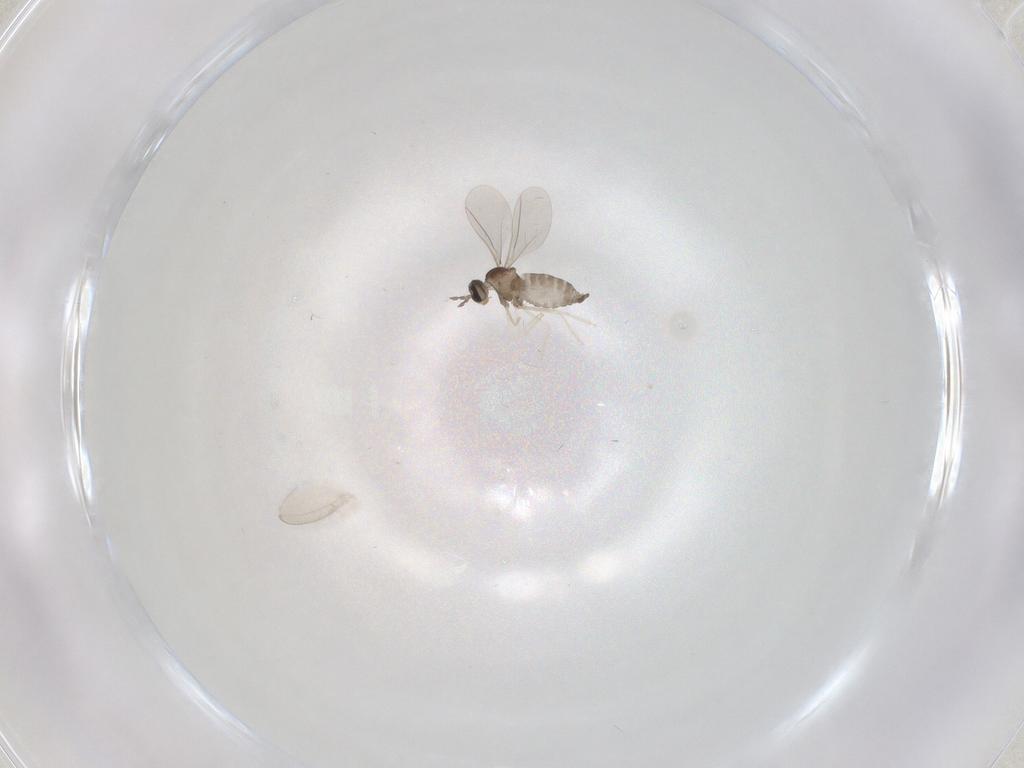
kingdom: Animalia
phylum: Arthropoda
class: Insecta
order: Diptera
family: Cecidomyiidae
